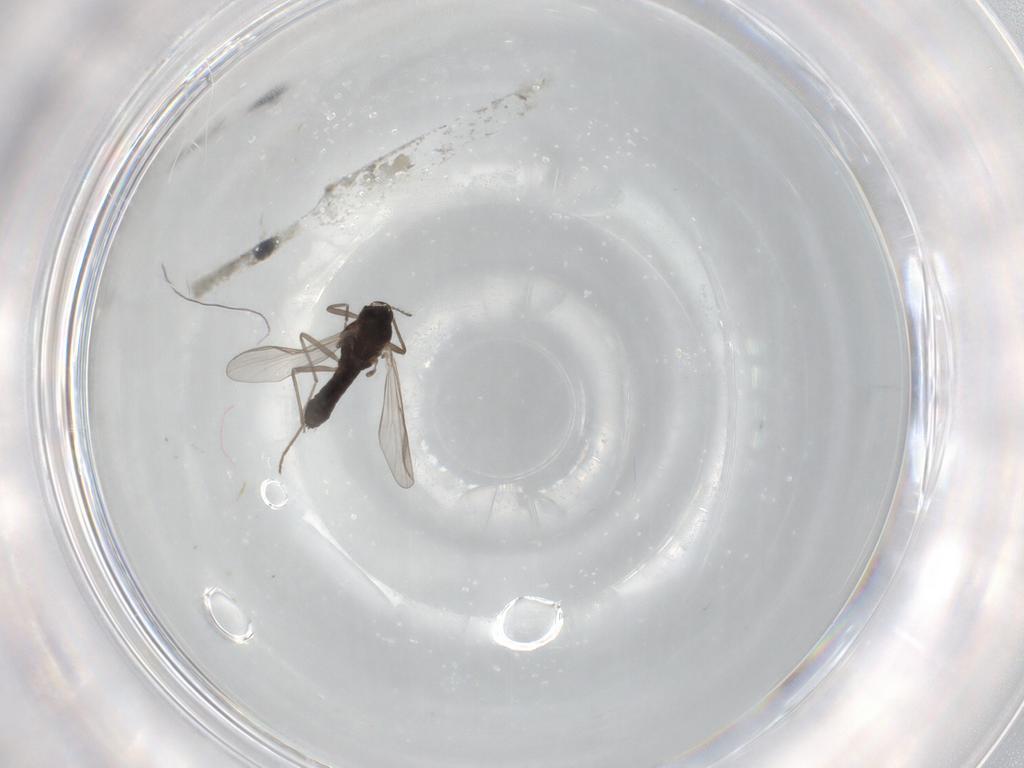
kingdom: Animalia
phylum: Arthropoda
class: Insecta
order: Diptera
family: Chironomidae
